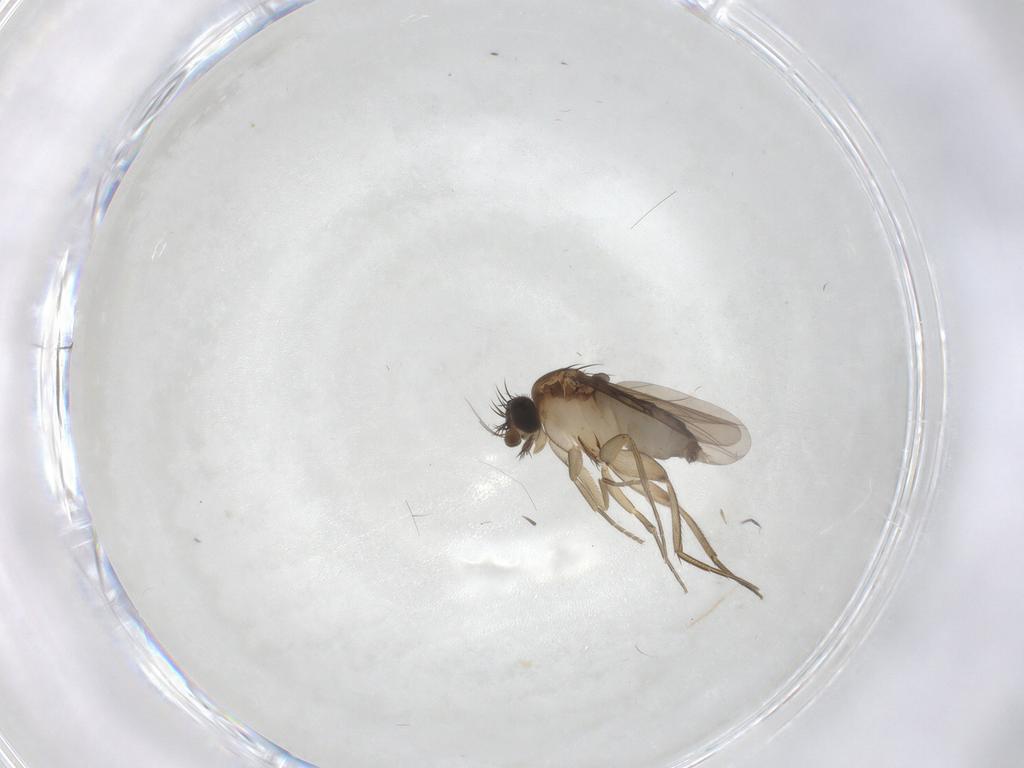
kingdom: Animalia
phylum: Arthropoda
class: Insecta
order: Diptera
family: Phoridae
